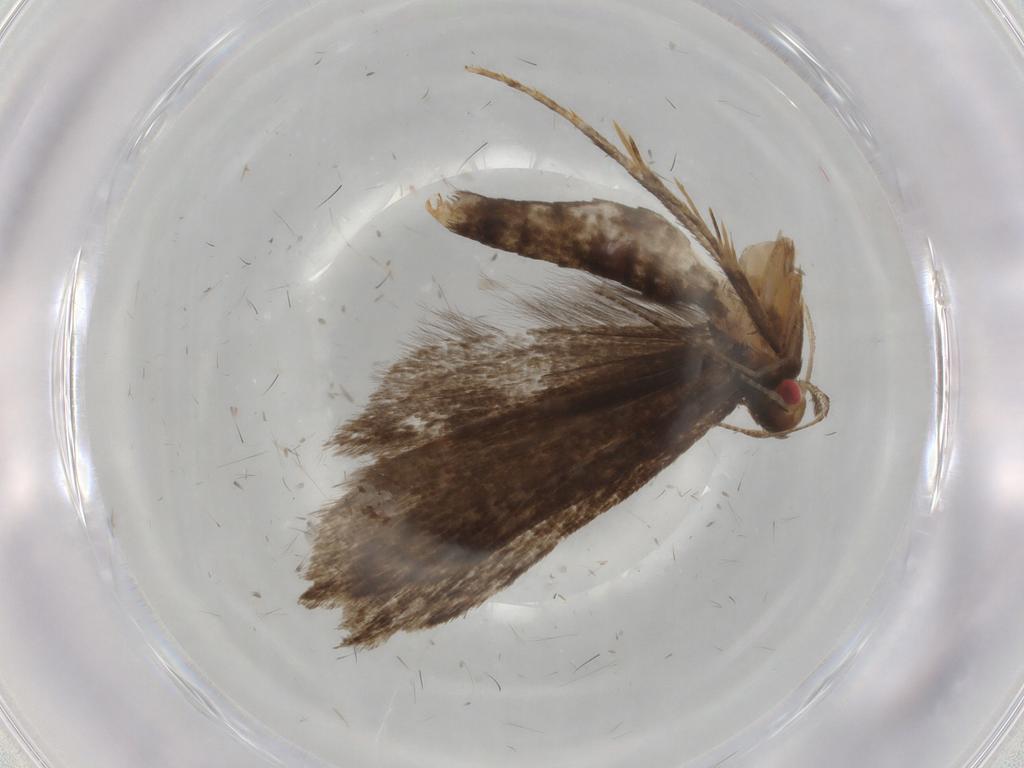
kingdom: Animalia
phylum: Arthropoda
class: Insecta
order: Lepidoptera
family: Gelechiidae
